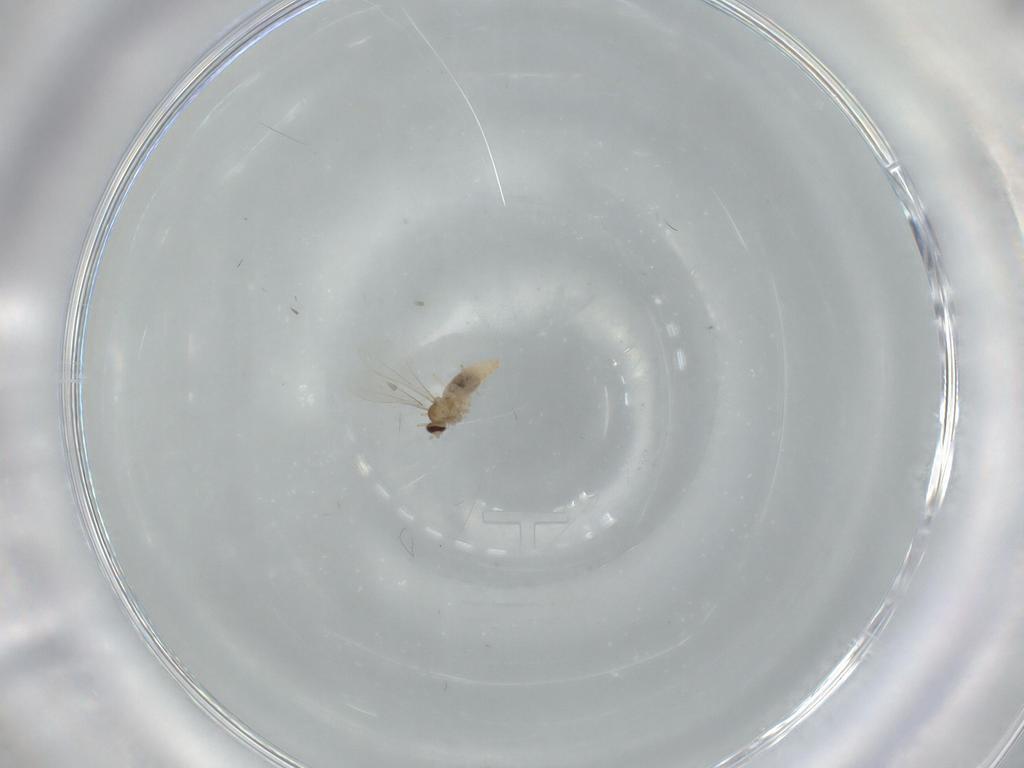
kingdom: Animalia
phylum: Arthropoda
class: Insecta
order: Diptera
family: Cecidomyiidae
